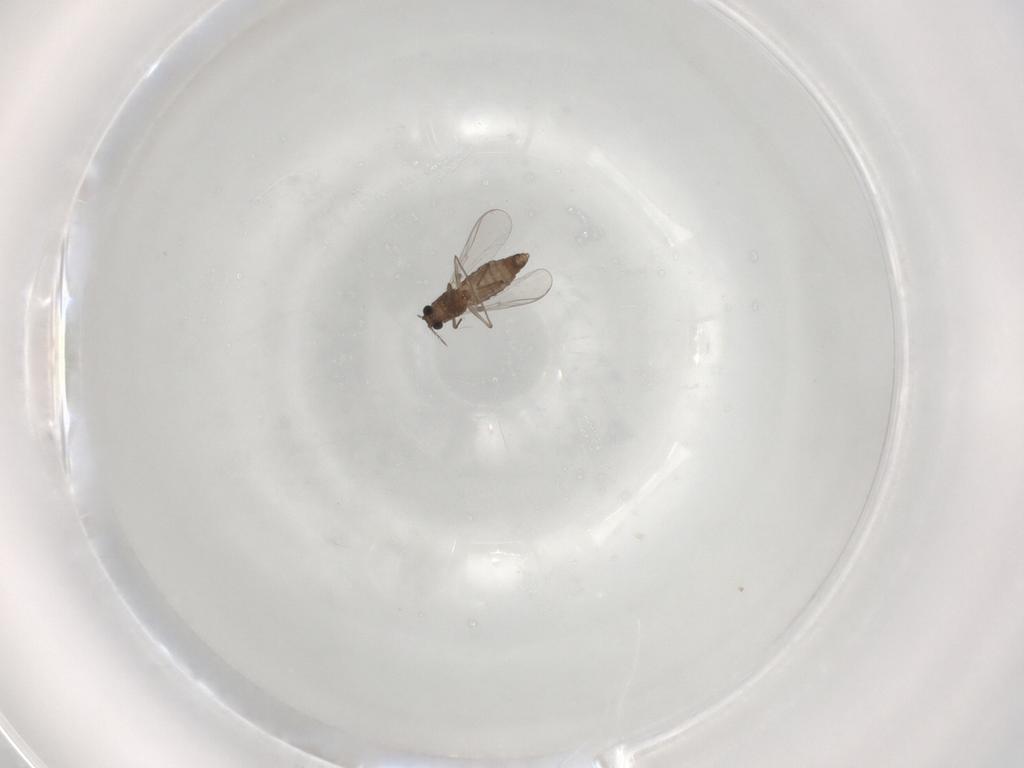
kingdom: Animalia
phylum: Arthropoda
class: Insecta
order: Diptera
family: Chironomidae
